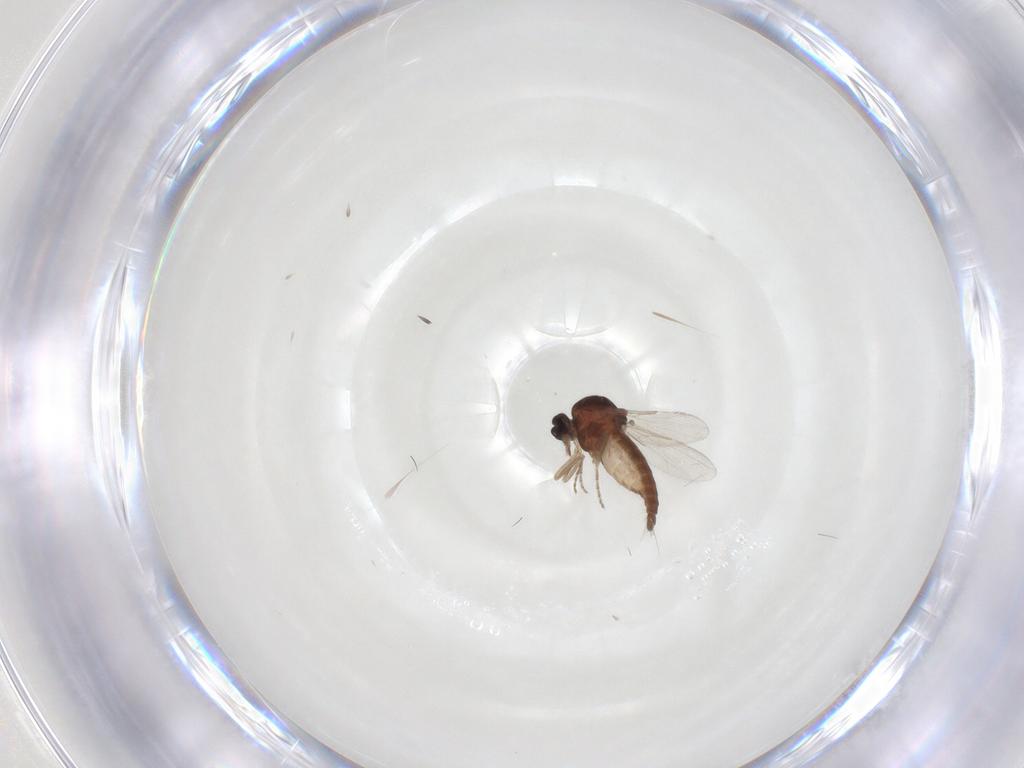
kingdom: Animalia
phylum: Arthropoda
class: Insecta
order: Diptera
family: Ceratopogonidae
